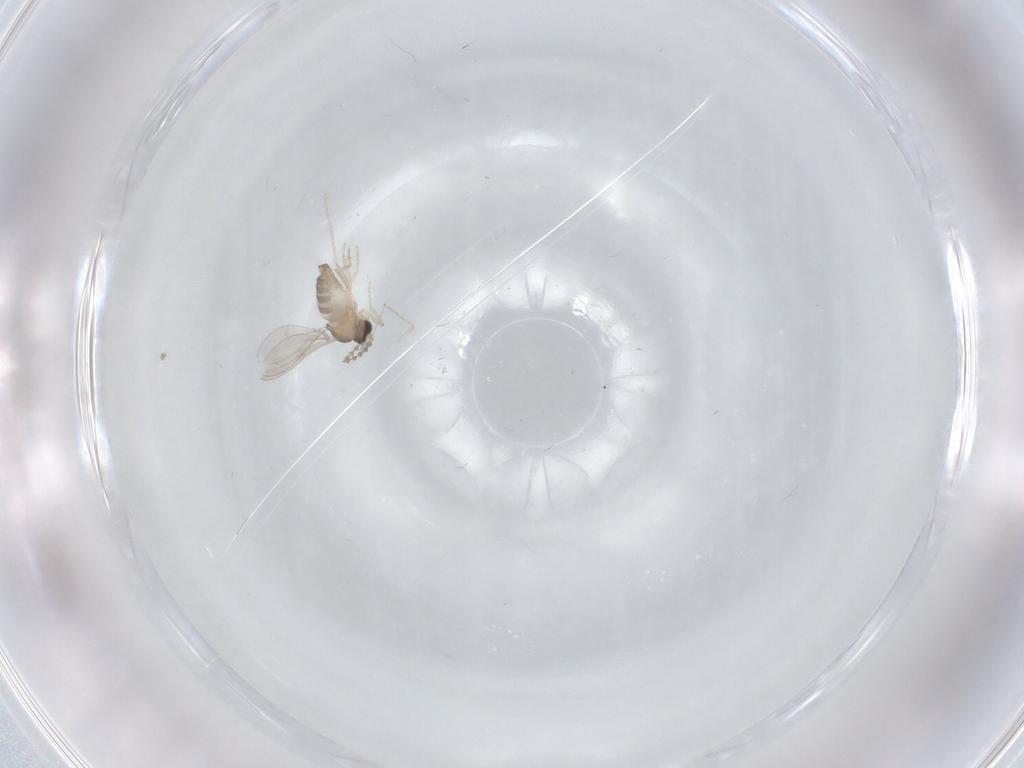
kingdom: Animalia
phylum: Arthropoda
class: Insecta
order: Diptera
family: Cecidomyiidae
